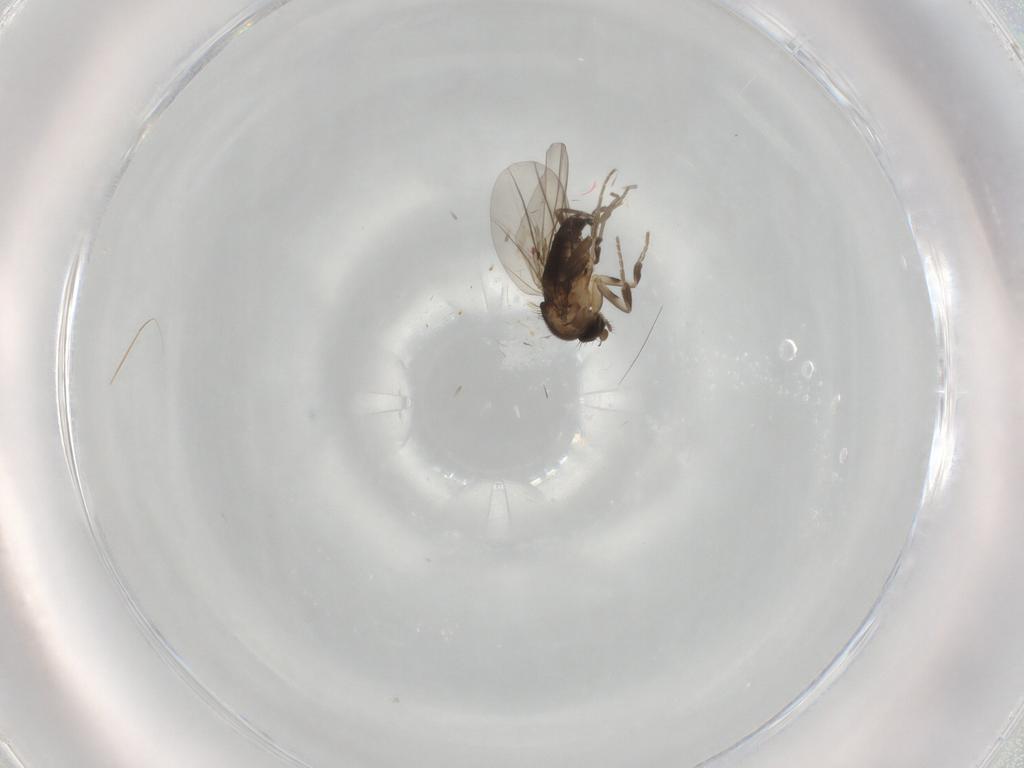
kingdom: Animalia
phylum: Arthropoda
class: Insecta
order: Diptera
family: Phoridae
